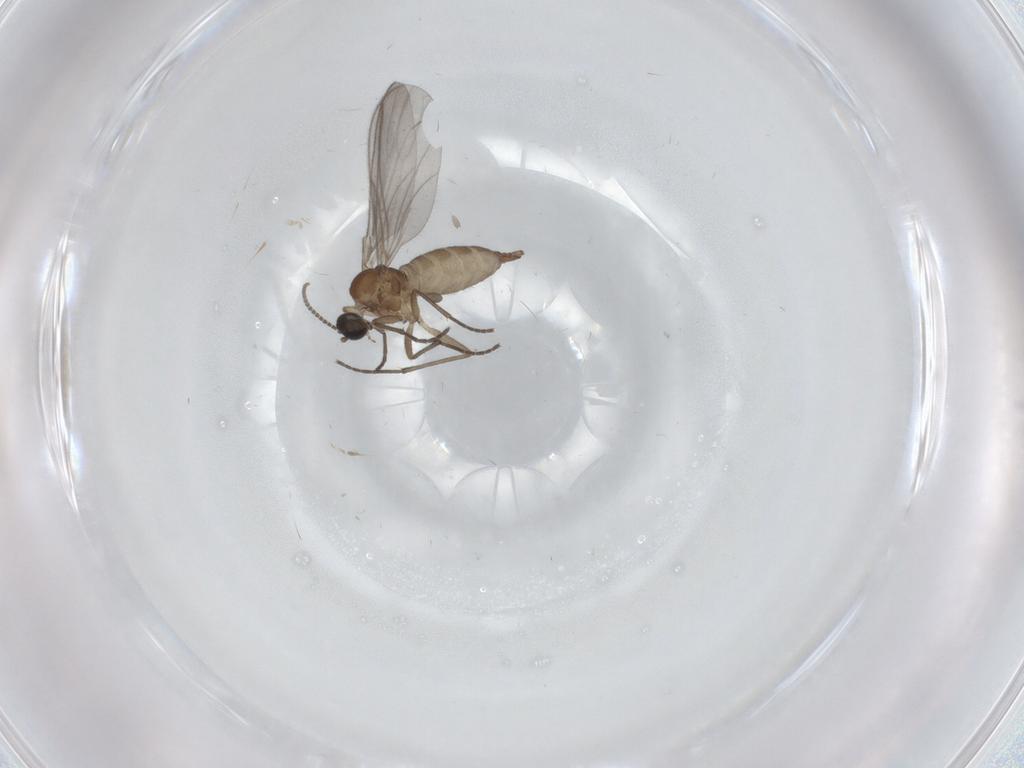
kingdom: Animalia
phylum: Arthropoda
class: Insecta
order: Diptera
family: Sciaridae
